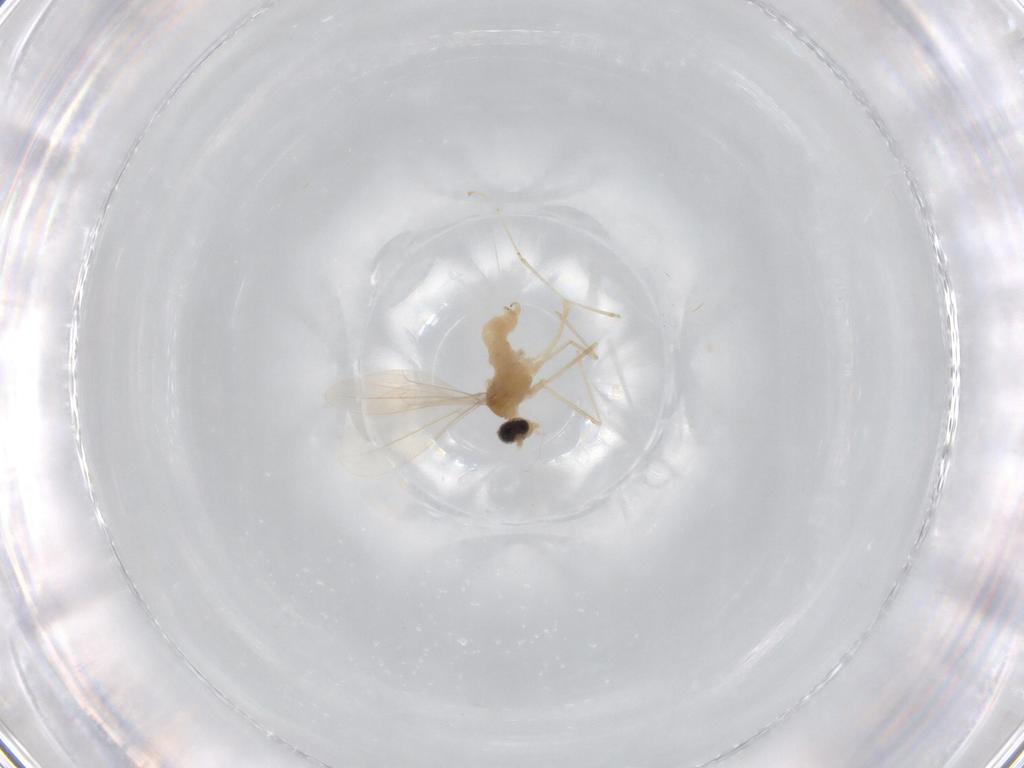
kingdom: Animalia
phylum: Arthropoda
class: Insecta
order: Diptera
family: Cecidomyiidae
